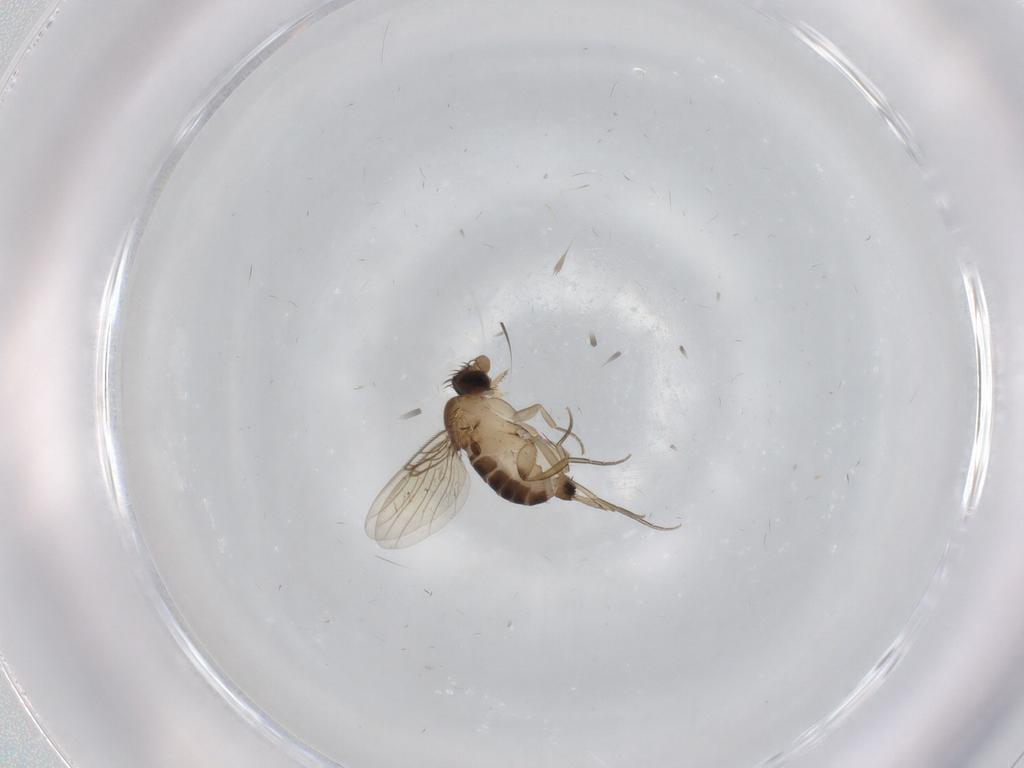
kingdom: Animalia
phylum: Arthropoda
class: Insecta
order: Diptera
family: Phoridae
